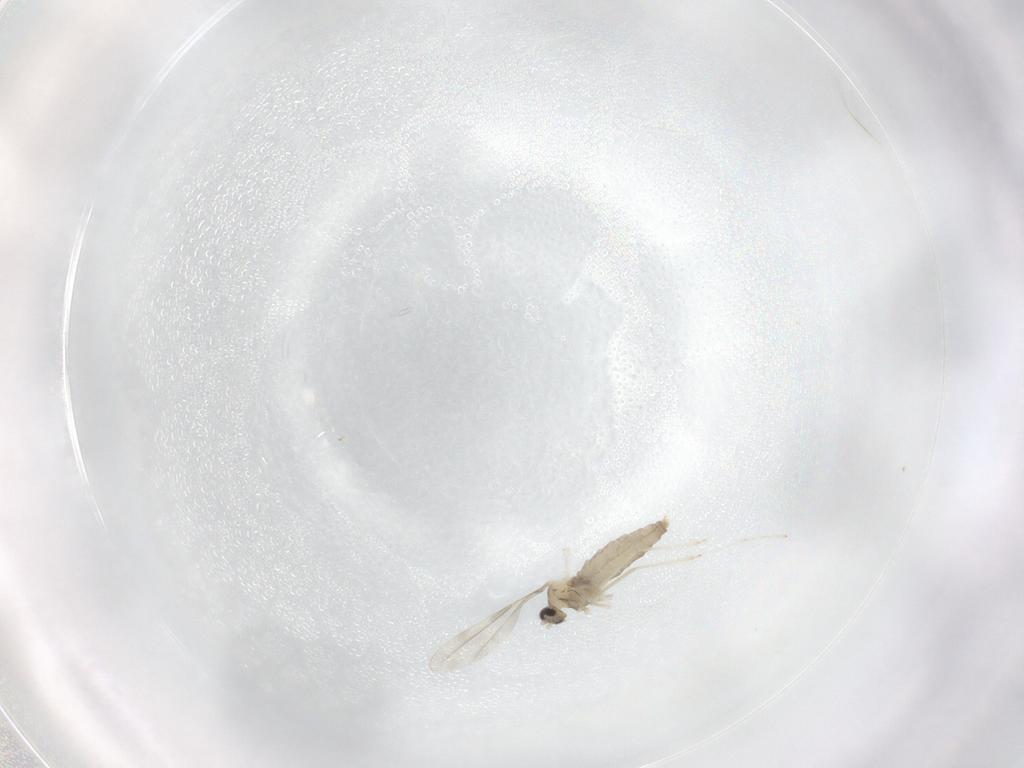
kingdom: Animalia
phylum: Arthropoda
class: Insecta
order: Diptera
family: Cecidomyiidae
